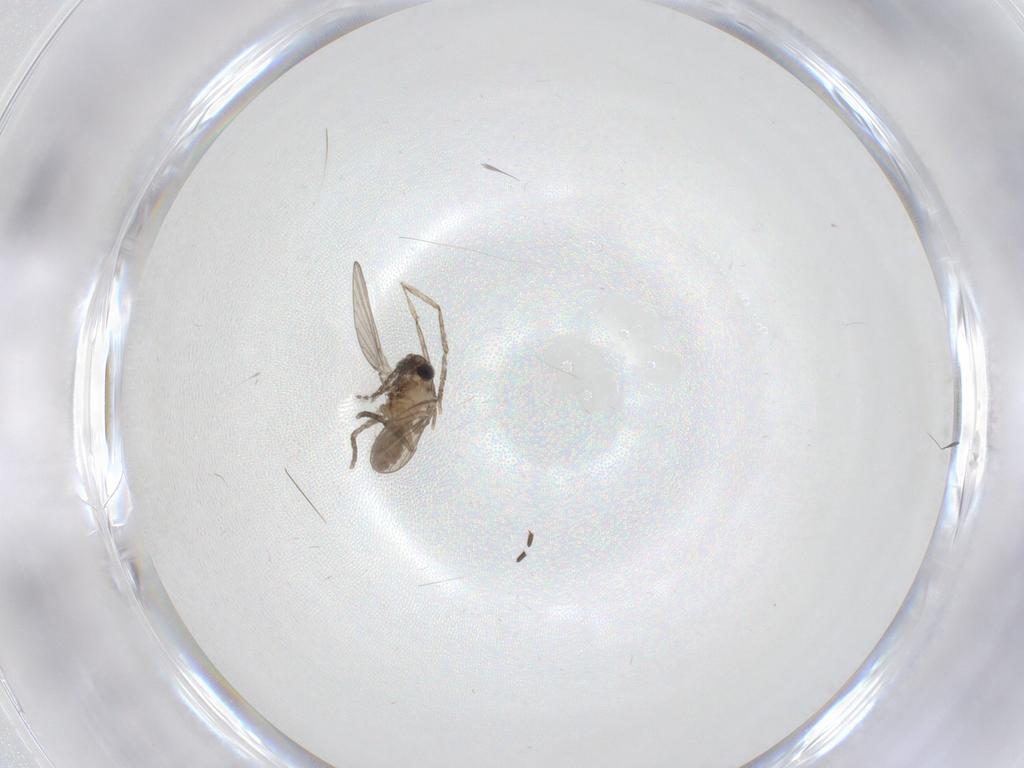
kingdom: Animalia
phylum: Arthropoda
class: Insecta
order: Diptera
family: Psychodidae
